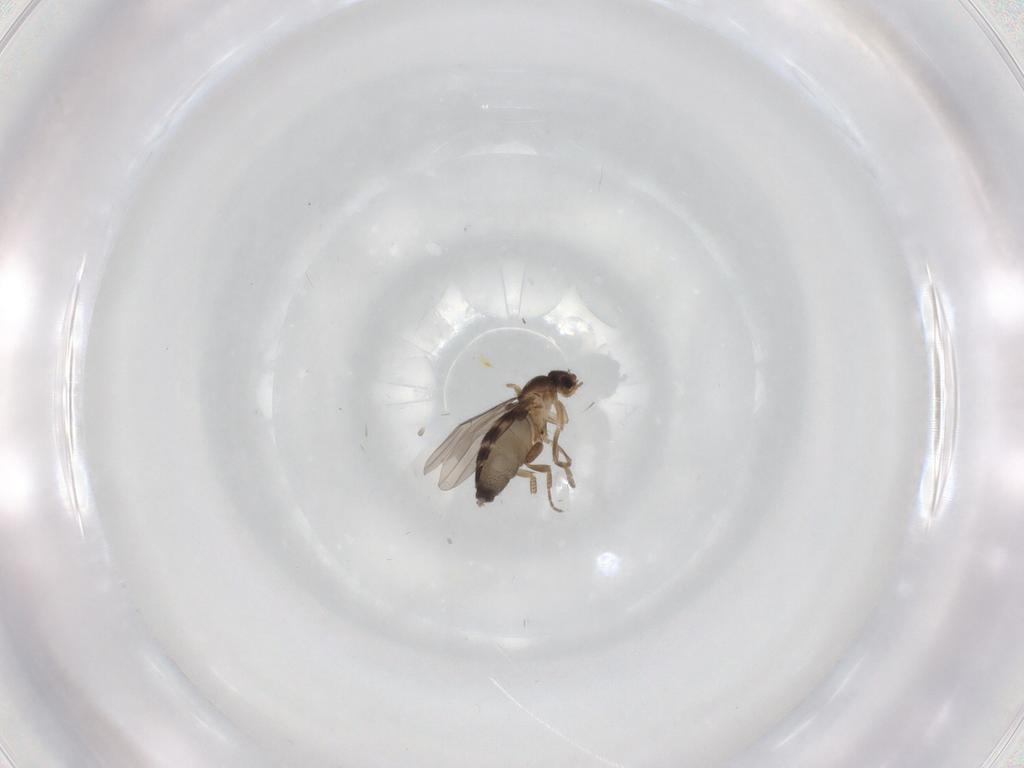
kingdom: Animalia
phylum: Arthropoda
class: Insecta
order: Diptera
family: Phoridae
